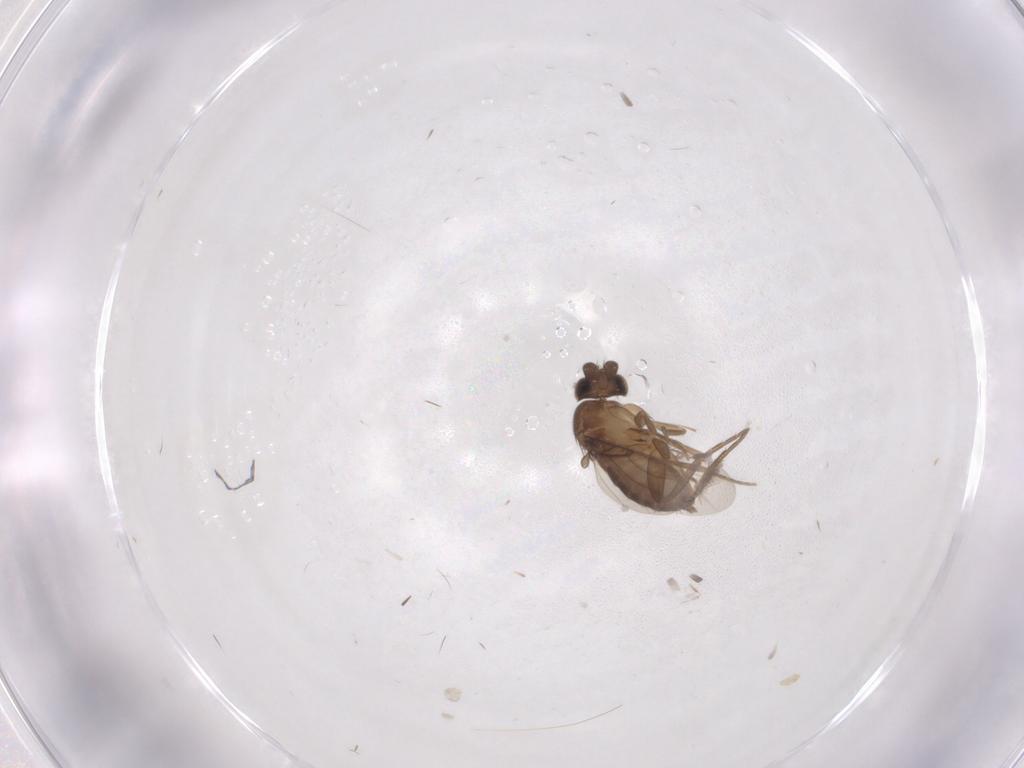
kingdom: Animalia
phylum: Arthropoda
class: Insecta
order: Diptera
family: Phoridae
